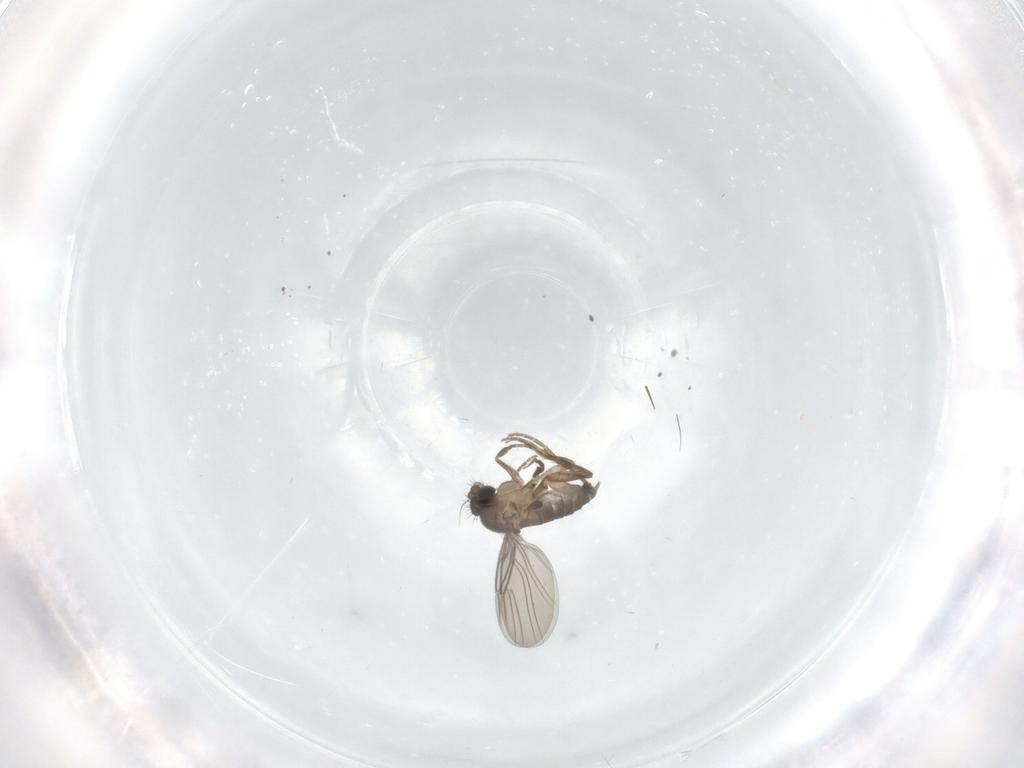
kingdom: Animalia
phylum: Arthropoda
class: Insecta
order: Diptera
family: Phoridae
